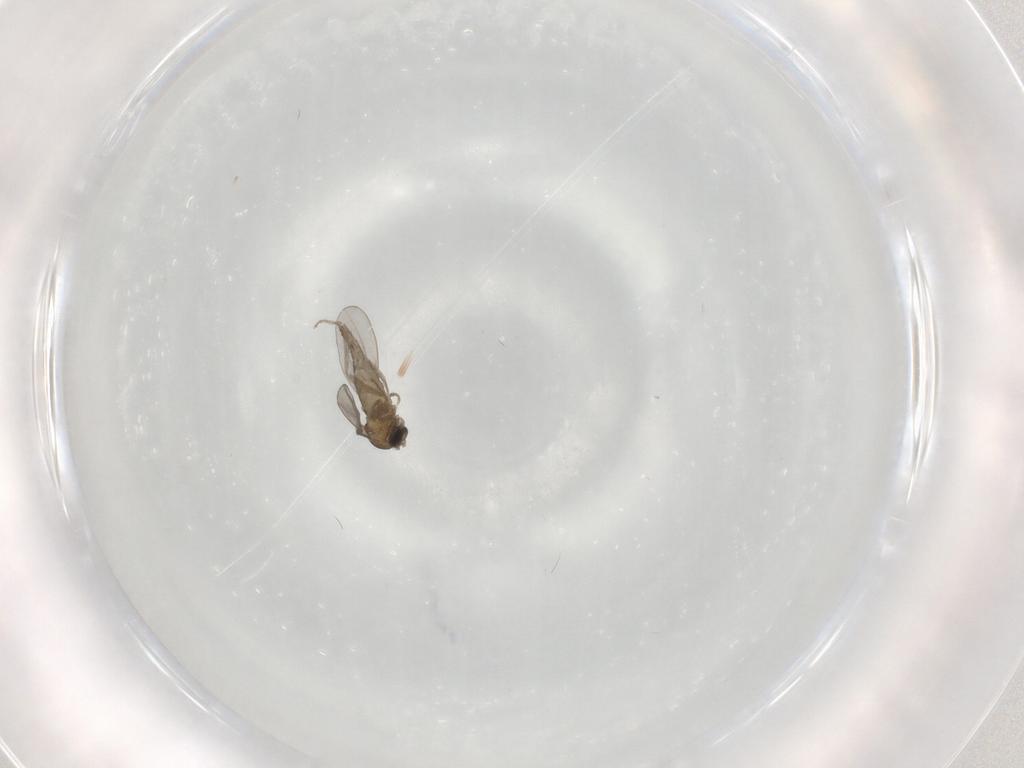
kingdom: Animalia
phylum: Arthropoda
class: Insecta
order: Diptera
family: Cecidomyiidae
